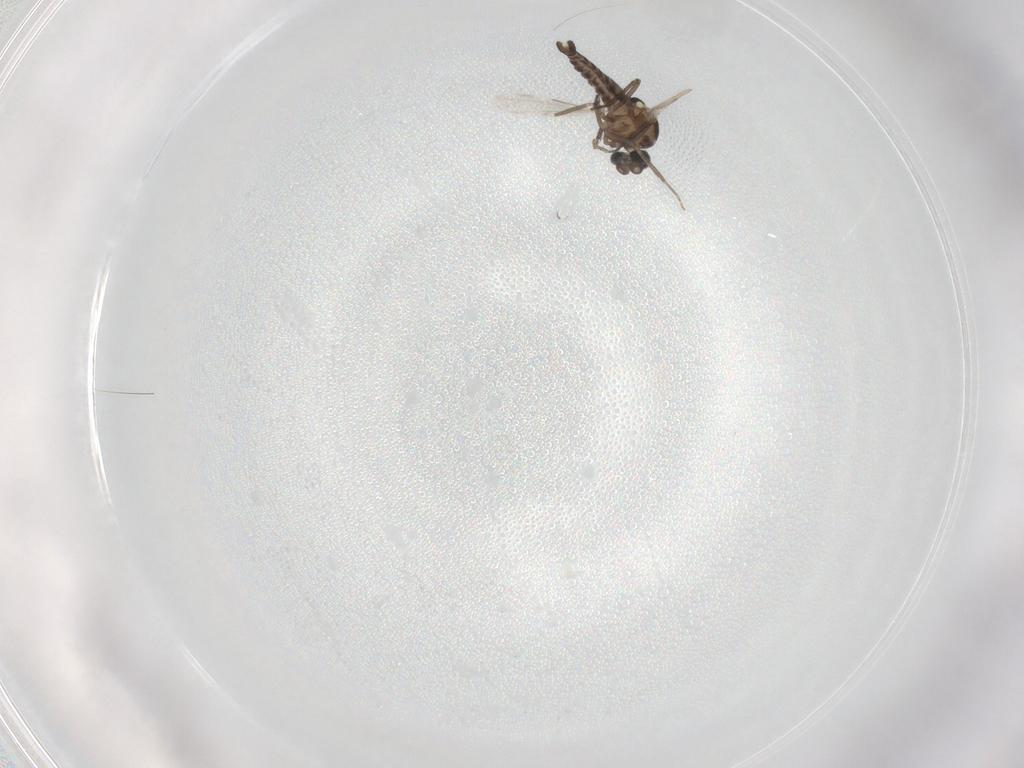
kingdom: Animalia
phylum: Arthropoda
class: Insecta
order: Diptera
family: Ceratopogonidae
